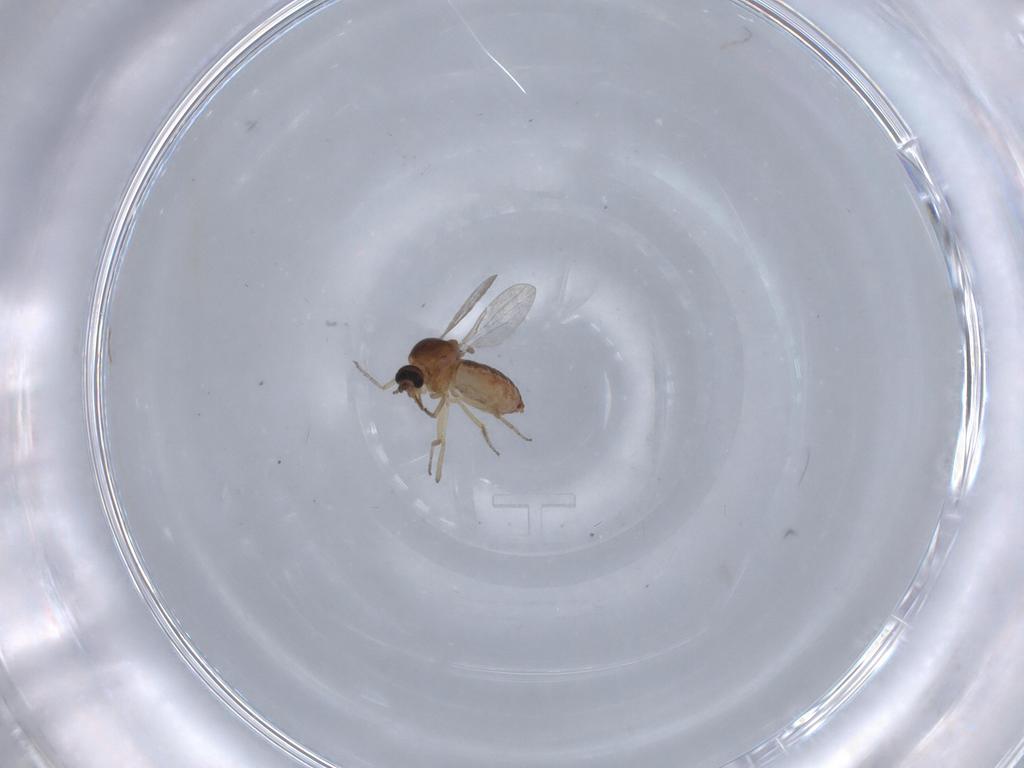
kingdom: Animalia
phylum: Arthropoda
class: Insecta
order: Diptera
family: Ceratopogonidae
